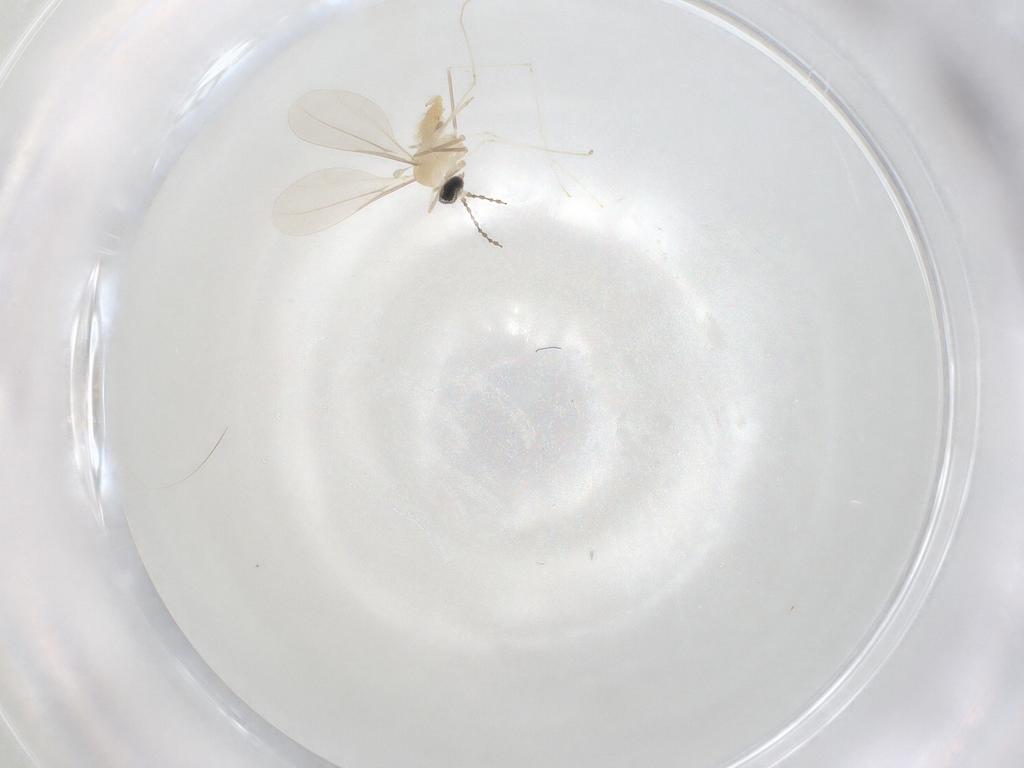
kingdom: Animalia
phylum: Arthropoda
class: Insecta
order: Diptera
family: Cecidomyiidae
